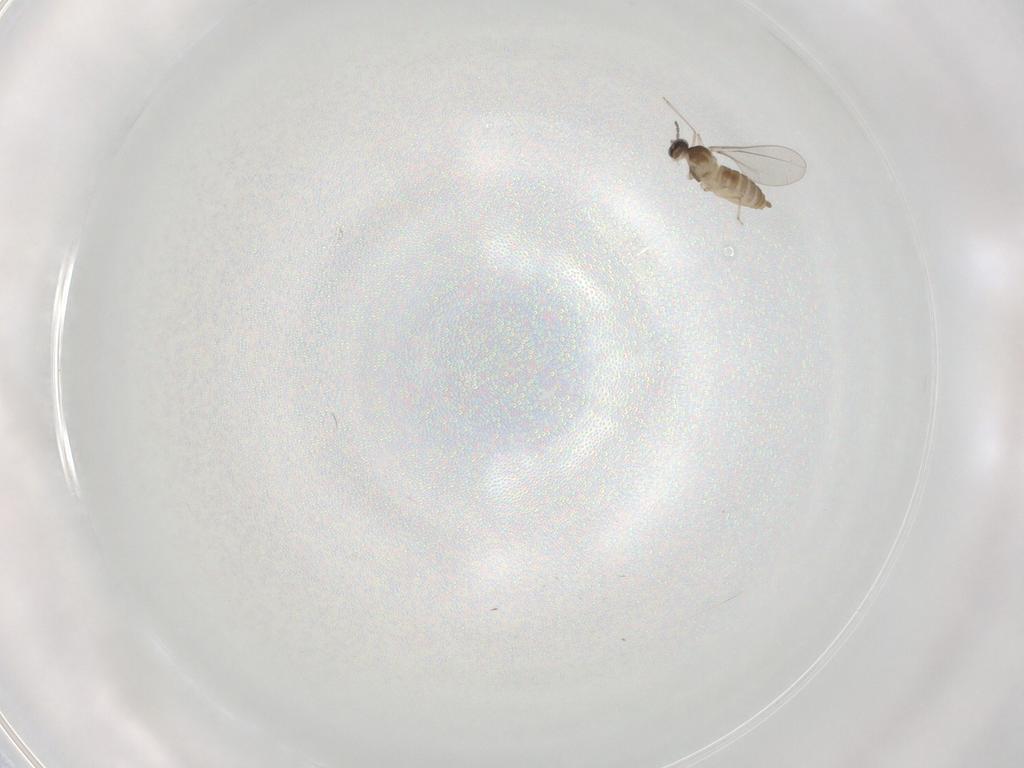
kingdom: Animalia
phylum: Arthropoda
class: Insecta
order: Diptera
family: Cecidomyiidae
